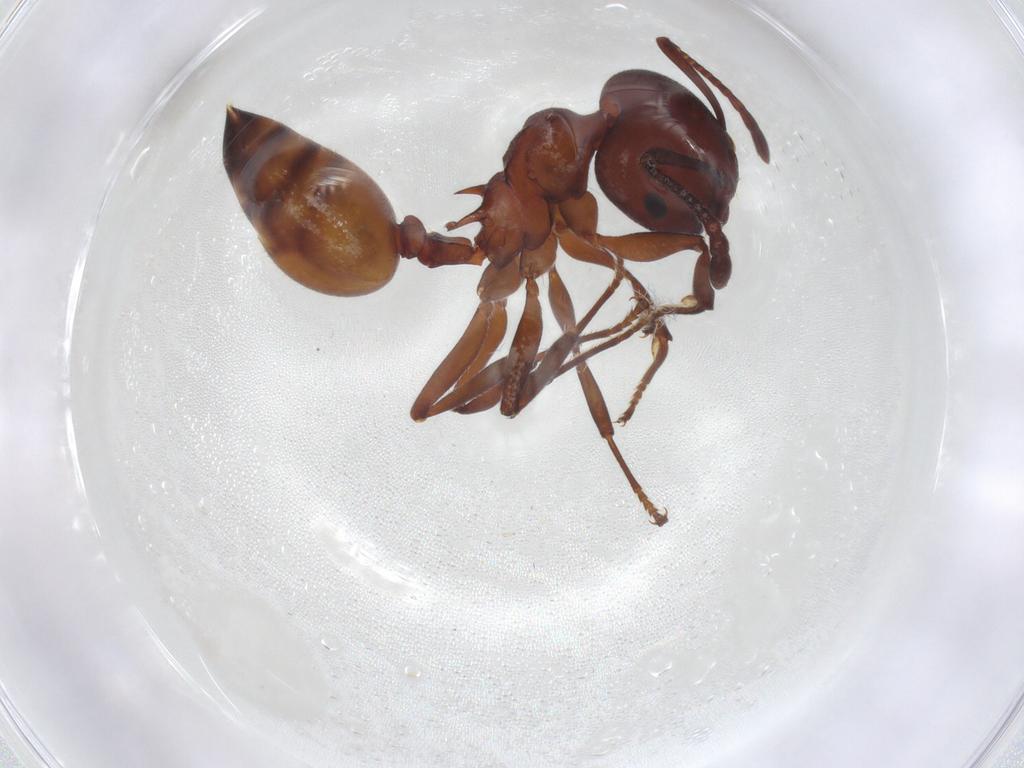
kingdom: Animalia
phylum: Arthropoda
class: Insecta
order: Hymenoptera
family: Formicidae
